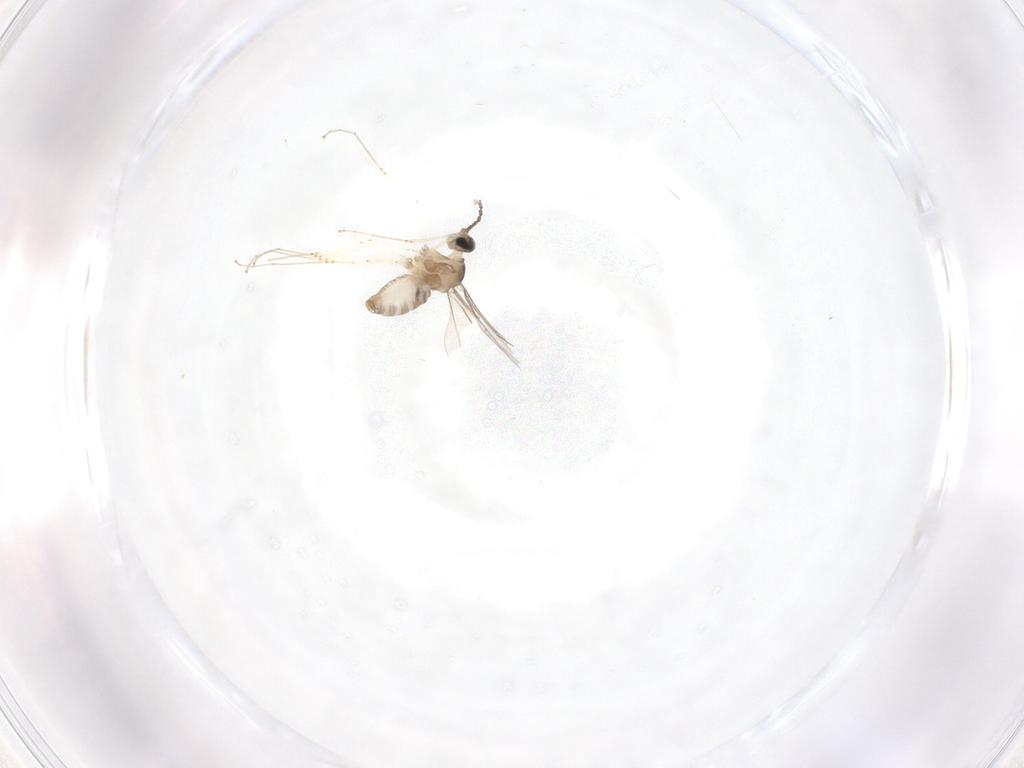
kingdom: Animalia
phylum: Arthropoda
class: Insecta
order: Diptera
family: Cecidomyiidae
